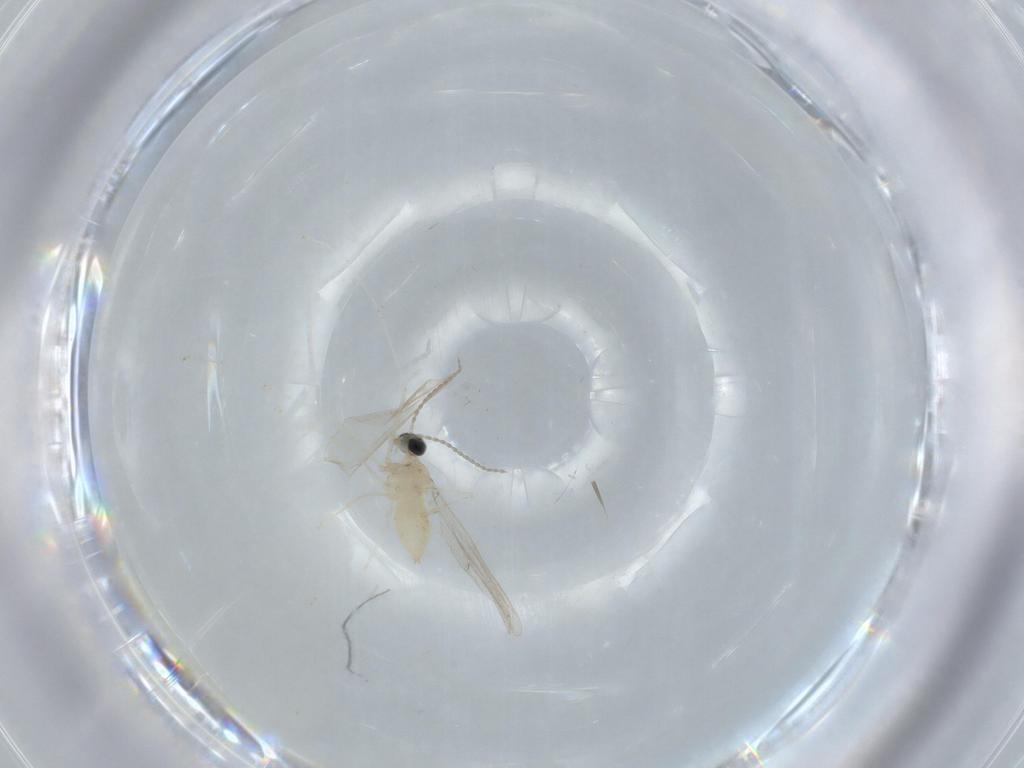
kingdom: Animalia
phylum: Arthropoda
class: Insecta
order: Diptera
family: Cecidomyiidae
